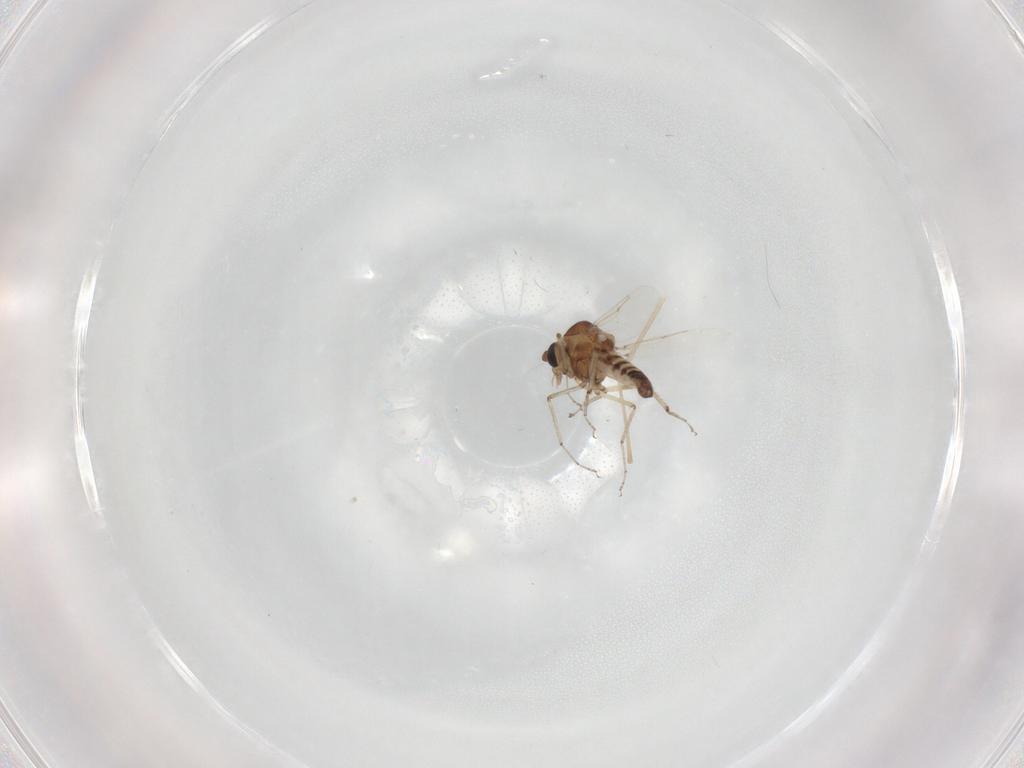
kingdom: Animalia
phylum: Arthropoda
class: Insecta
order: Diptera
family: Ceratopogonidae
